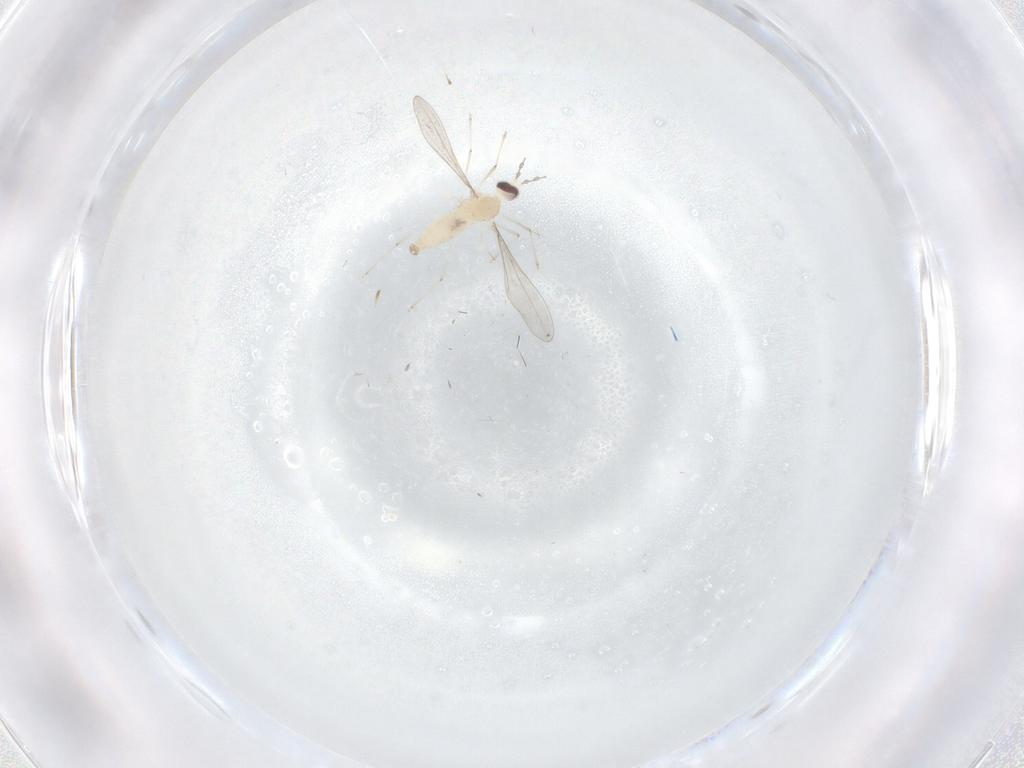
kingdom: Animalia
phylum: Arthropoda
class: Insecta
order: Diptera
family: Cecidomyiidae
